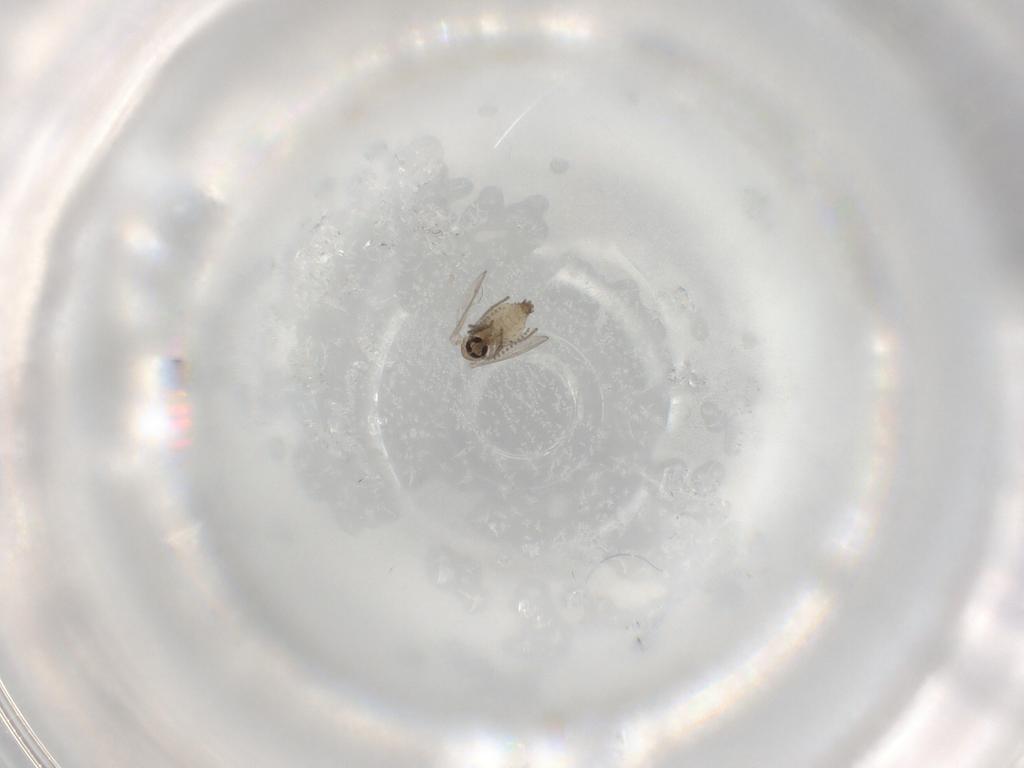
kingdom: Animalia
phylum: Arthropoda
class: Insecta
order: Diptera
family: Psychodidae
